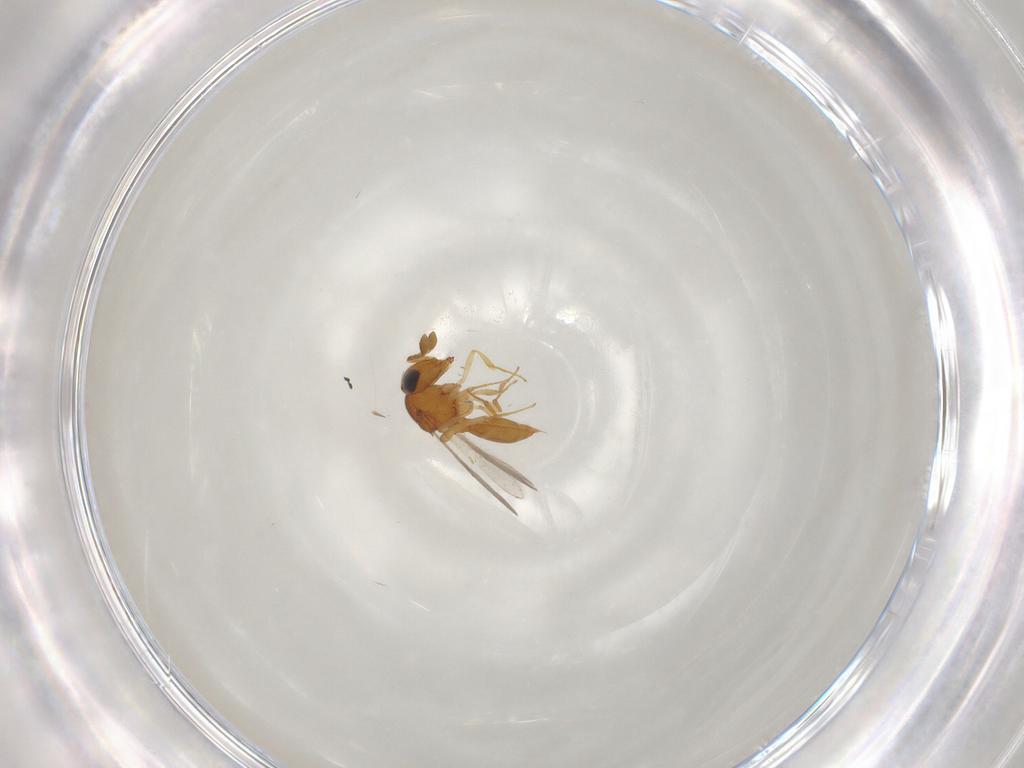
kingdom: Animalia
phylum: Arthropoda
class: Insecta
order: Hymenoptera
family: Scelionidae
